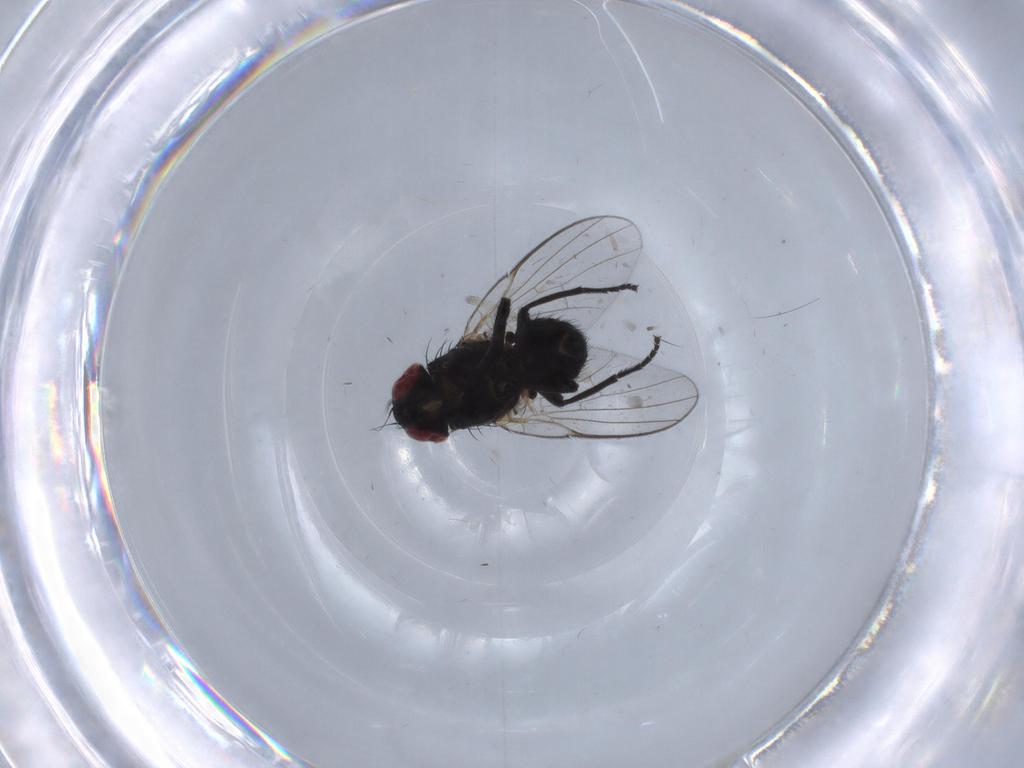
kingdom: Animalia
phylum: Arthropoda
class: Insecta
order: Diptera
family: Agromyzidae
